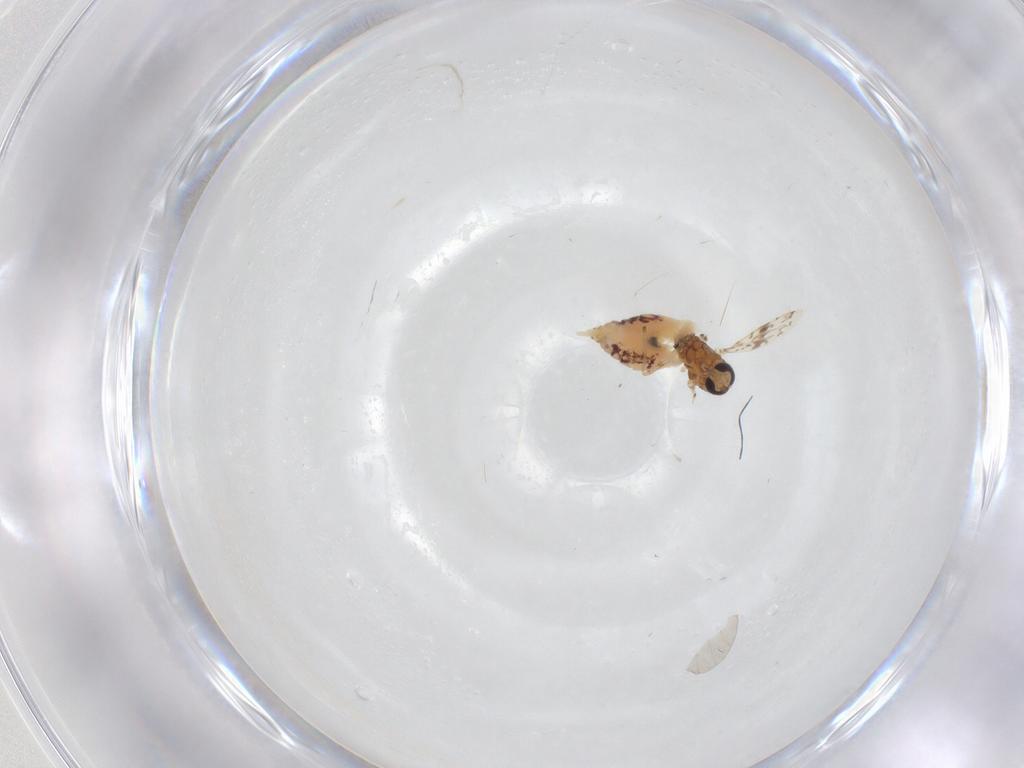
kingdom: Animalia
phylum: Arthropoda
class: Insecta
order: Diptera
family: Ceratopogonidae
